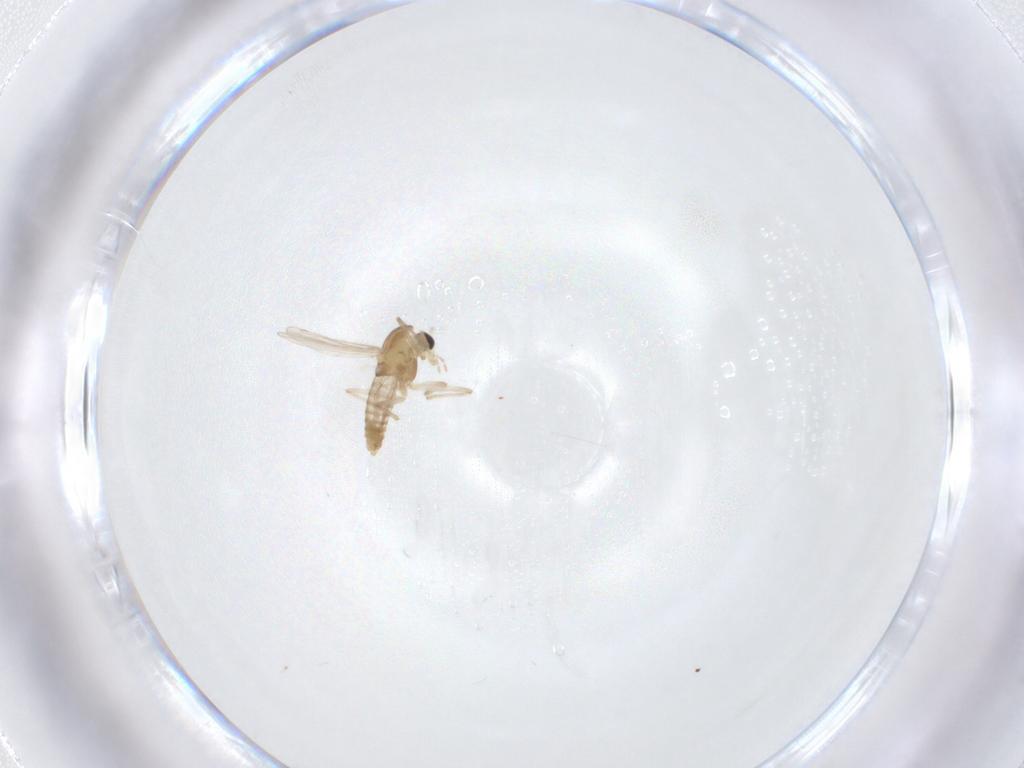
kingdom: Animalia
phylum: Arthropoda
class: Insecta
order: Diptera
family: Chironomidae
